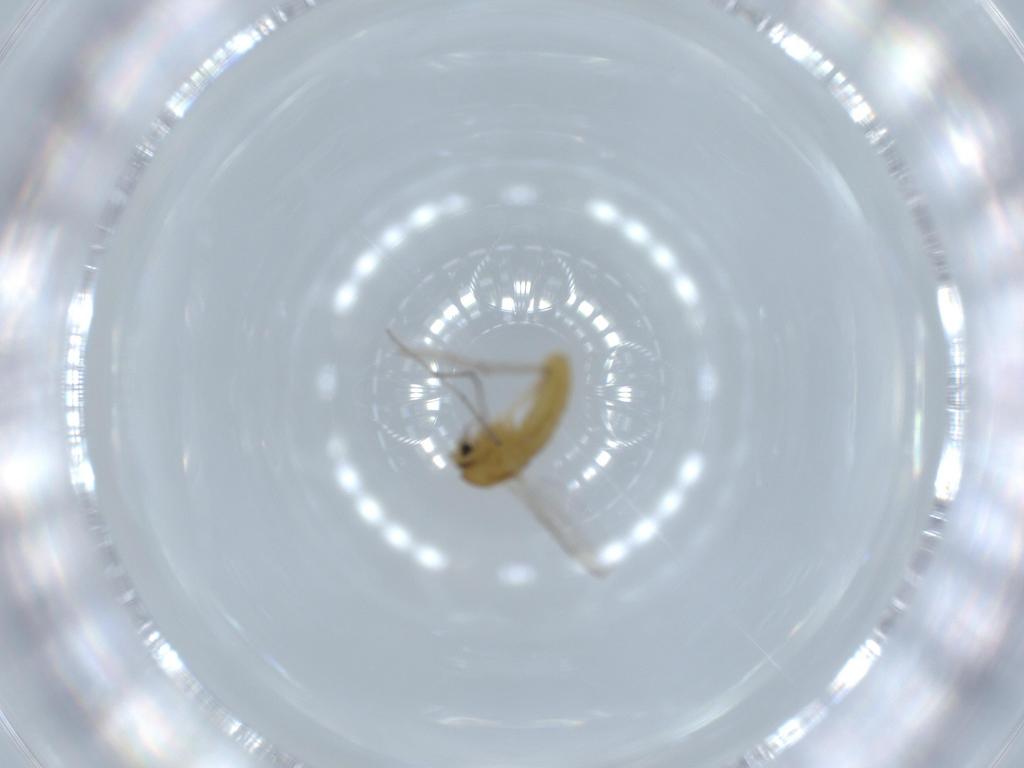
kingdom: Animalia
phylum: Arthropoda
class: Insecta
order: Diptera
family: Chironomidae
